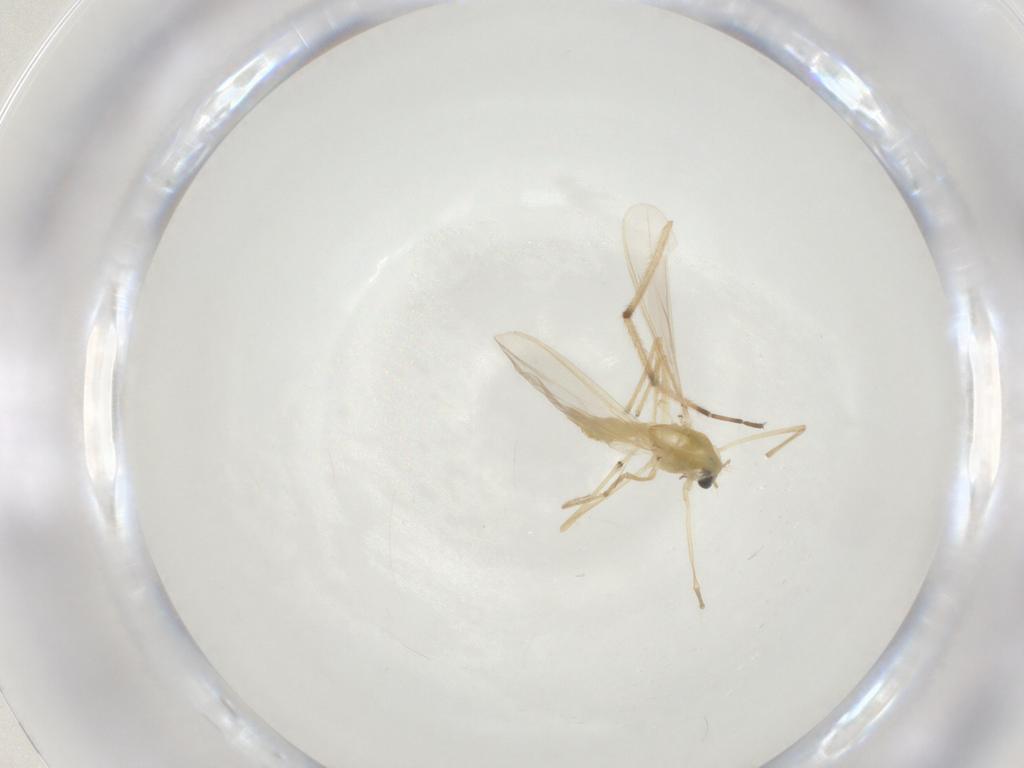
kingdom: Animalia
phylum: Arthropoda
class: Insecta
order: Diptera
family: Chironomidae
